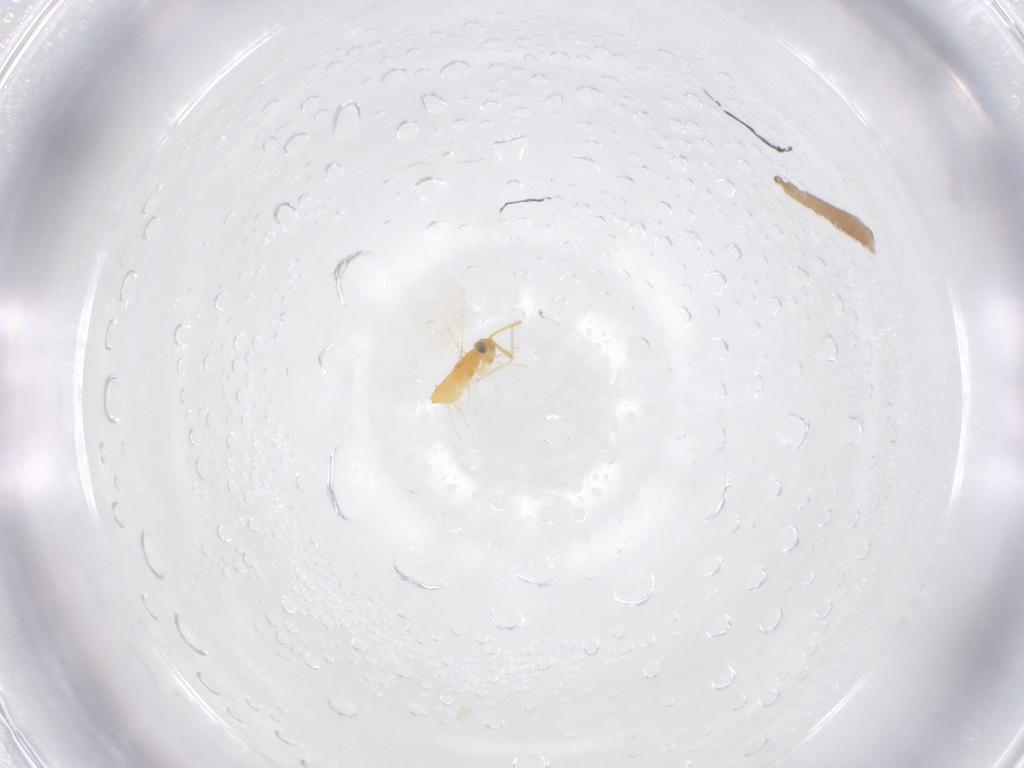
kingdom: Animalia
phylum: Arthropoda
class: Insecta
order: Hymenoptera
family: Aphelinidae
